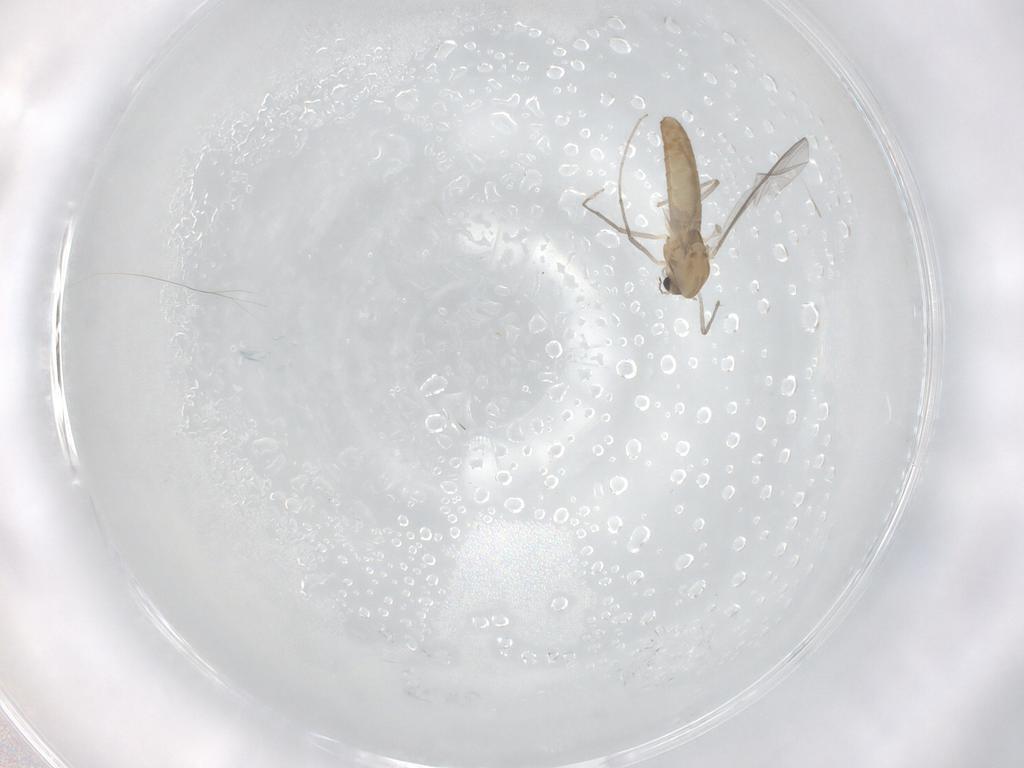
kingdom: Animalia
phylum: Arthropoda
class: Insecta
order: Diptera
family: Chironomidae
